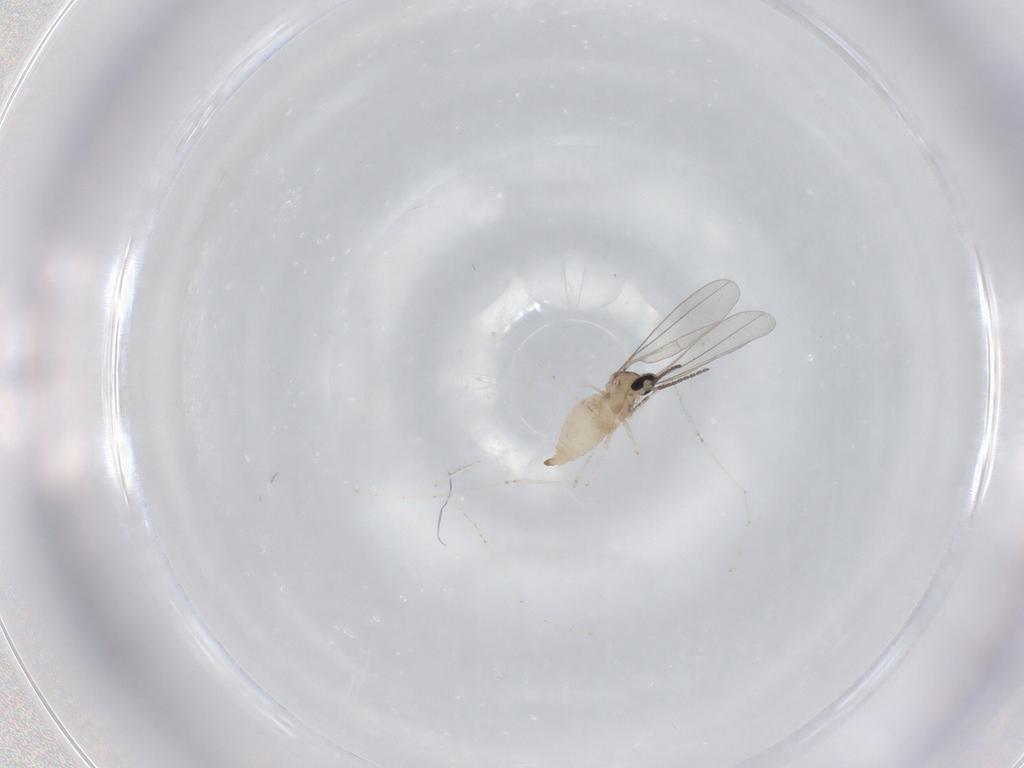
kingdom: Animalia
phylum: Arthropoda
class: Insecta
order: Diptera
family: Cecidomyiidae
